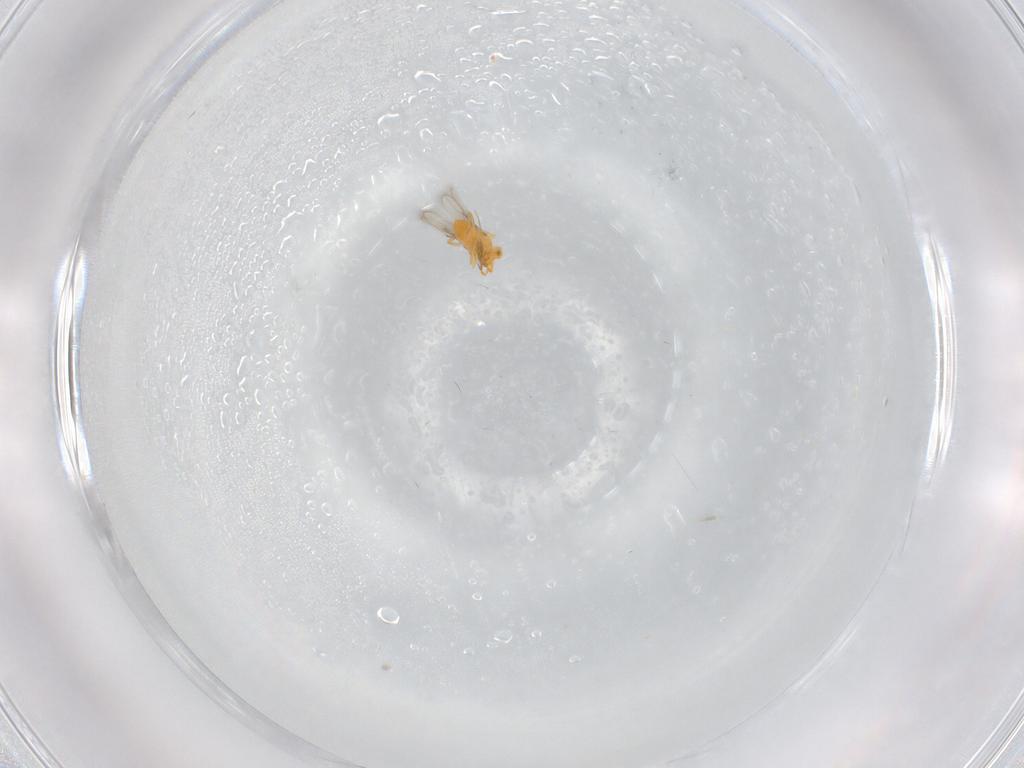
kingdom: Animalia
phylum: Arthropoda
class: Insecta
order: Hymenoptera
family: Aphelinidae
